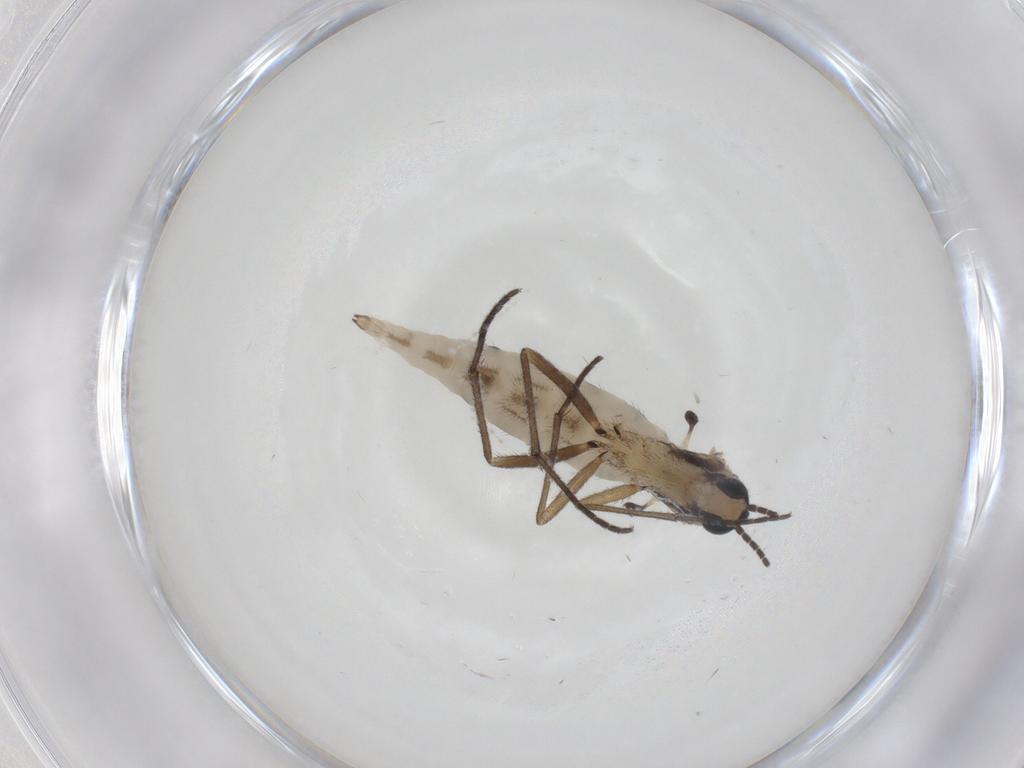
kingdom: Animalia
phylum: Arthropoda
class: Insecta
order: Diptera
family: Sciaridae
